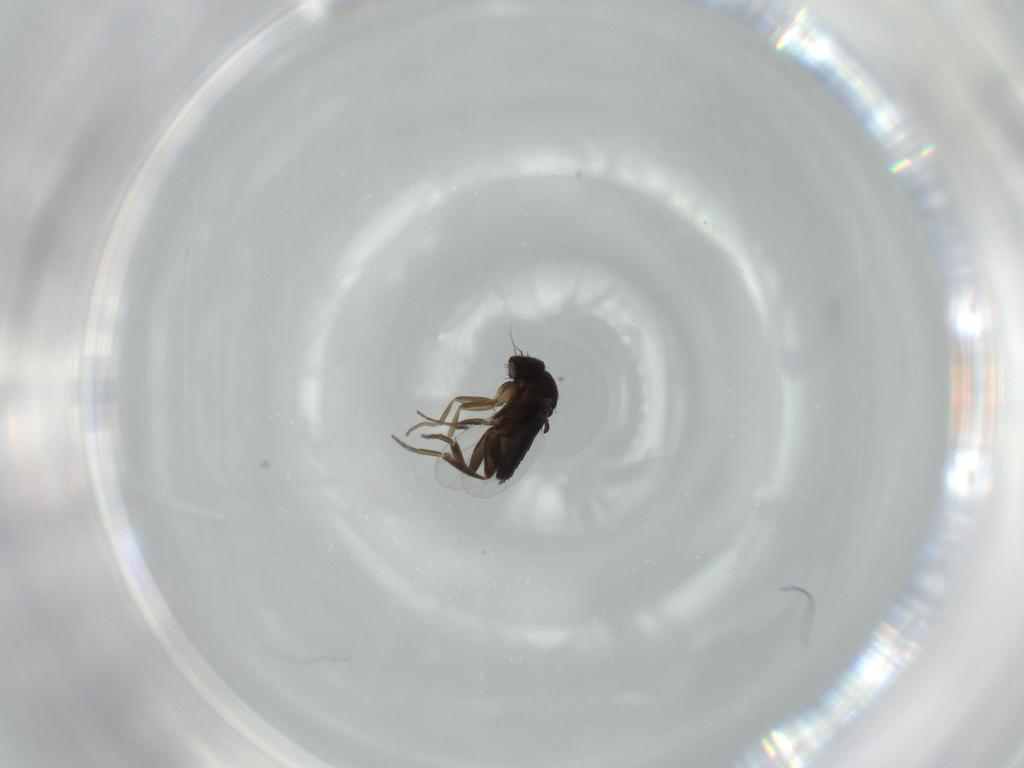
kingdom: Animalia
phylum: Arthropoda
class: Insecta
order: Diptera
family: Phoridae
